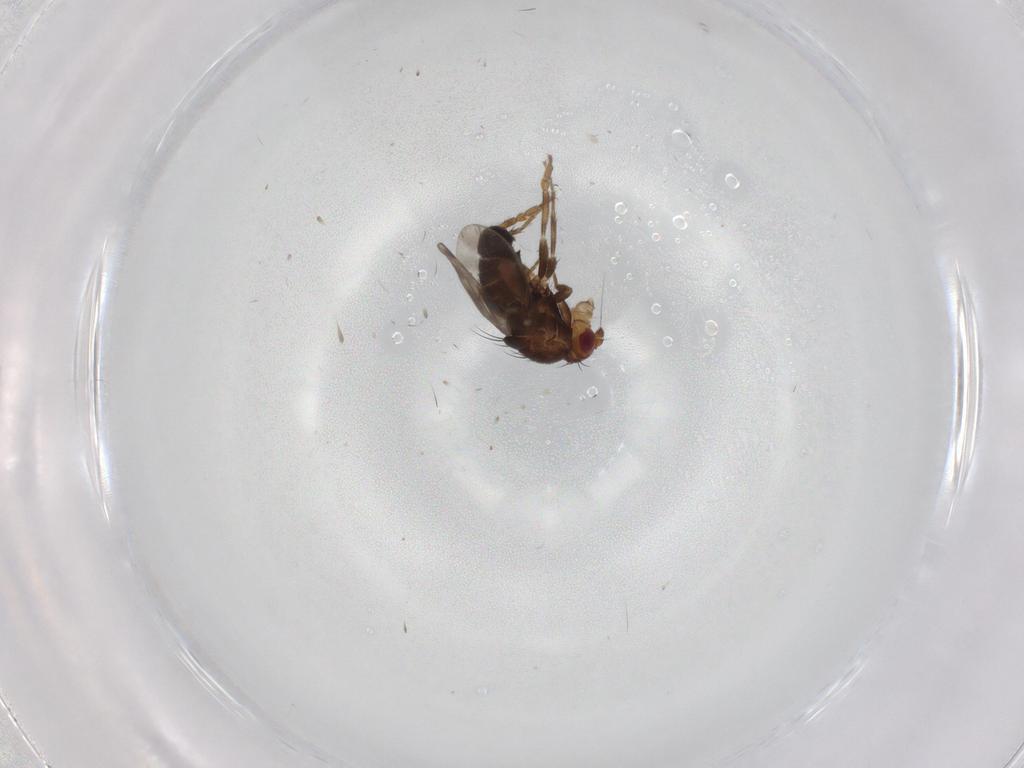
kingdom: Animalia
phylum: Arthropoda
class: Insecta
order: Diptera
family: Sphaeroceridae
